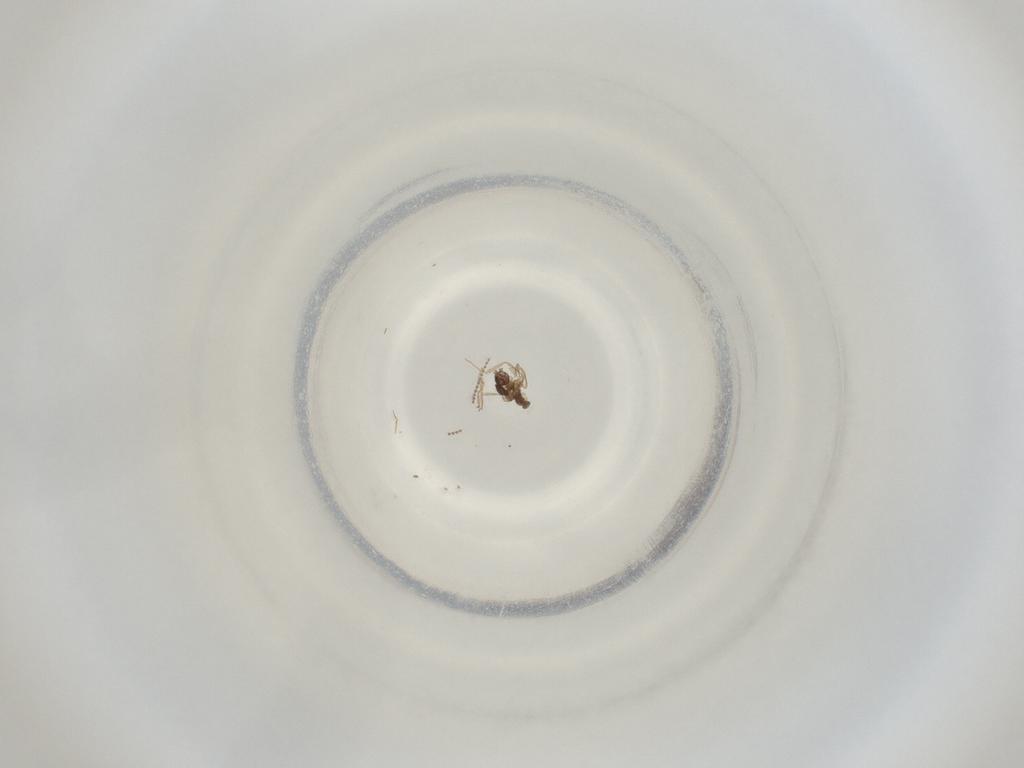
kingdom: Animalia
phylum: Arthropoda
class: Insecta
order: Diptera
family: Cecidomyiidae
